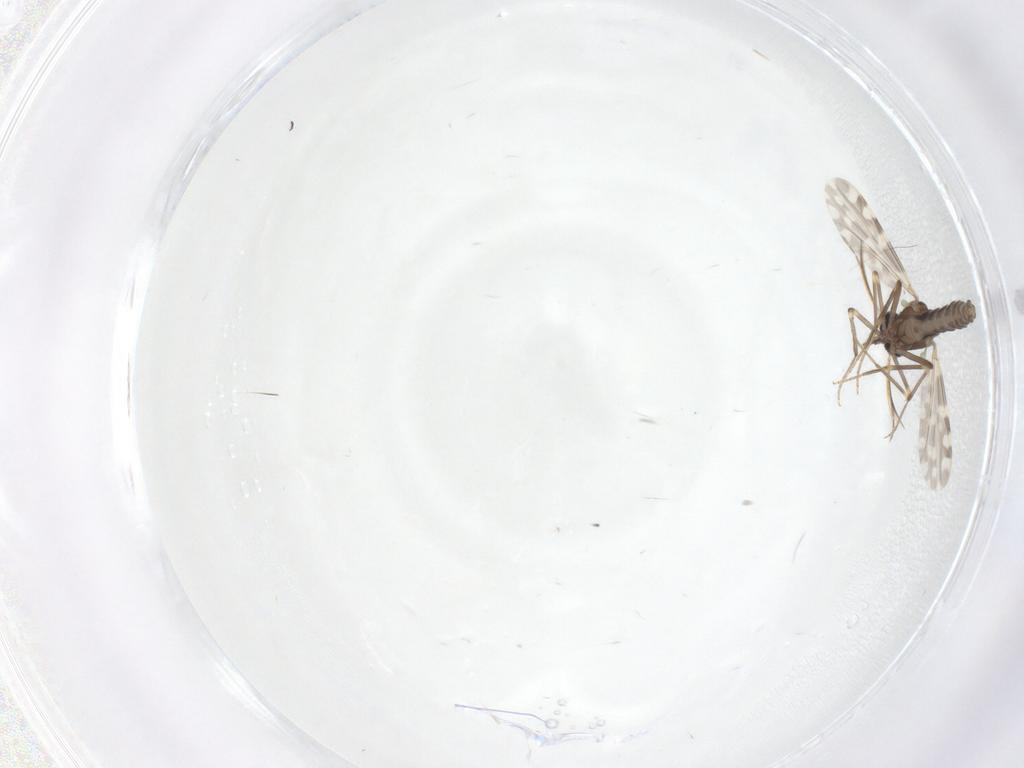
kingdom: Animalia
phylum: Arthropoda
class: Insecta
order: Diptera
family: Ceratopogonidae
